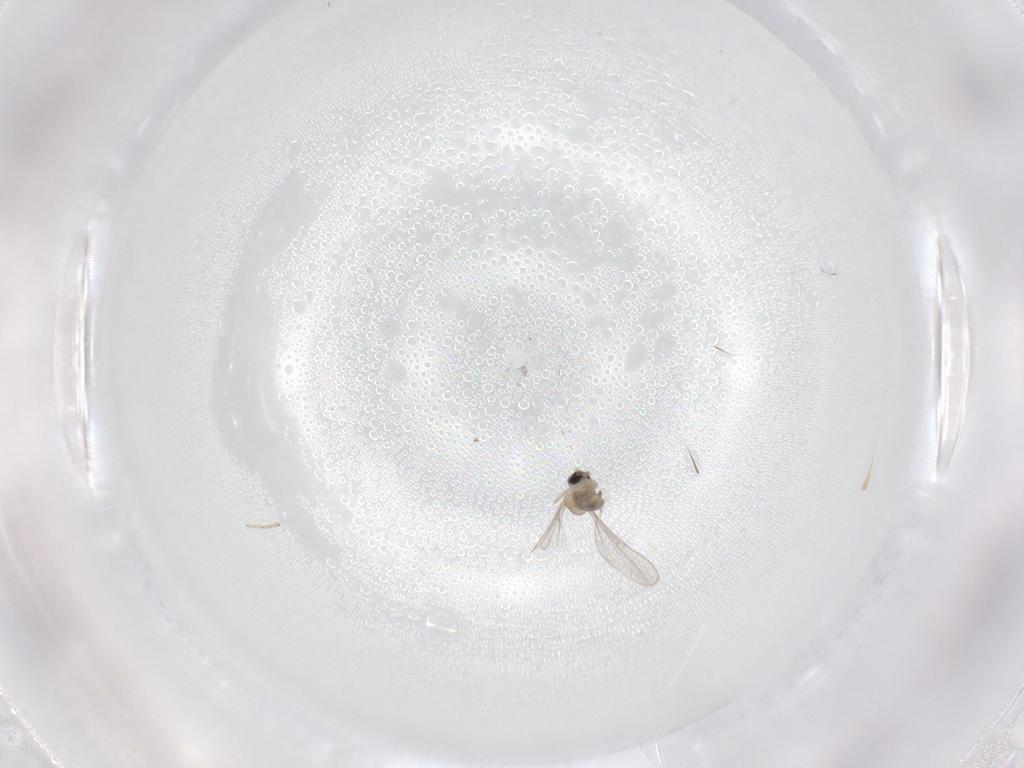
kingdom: Animalia
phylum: Arthropoda
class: Insecta
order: Diptera
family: Cecidomyiidae
